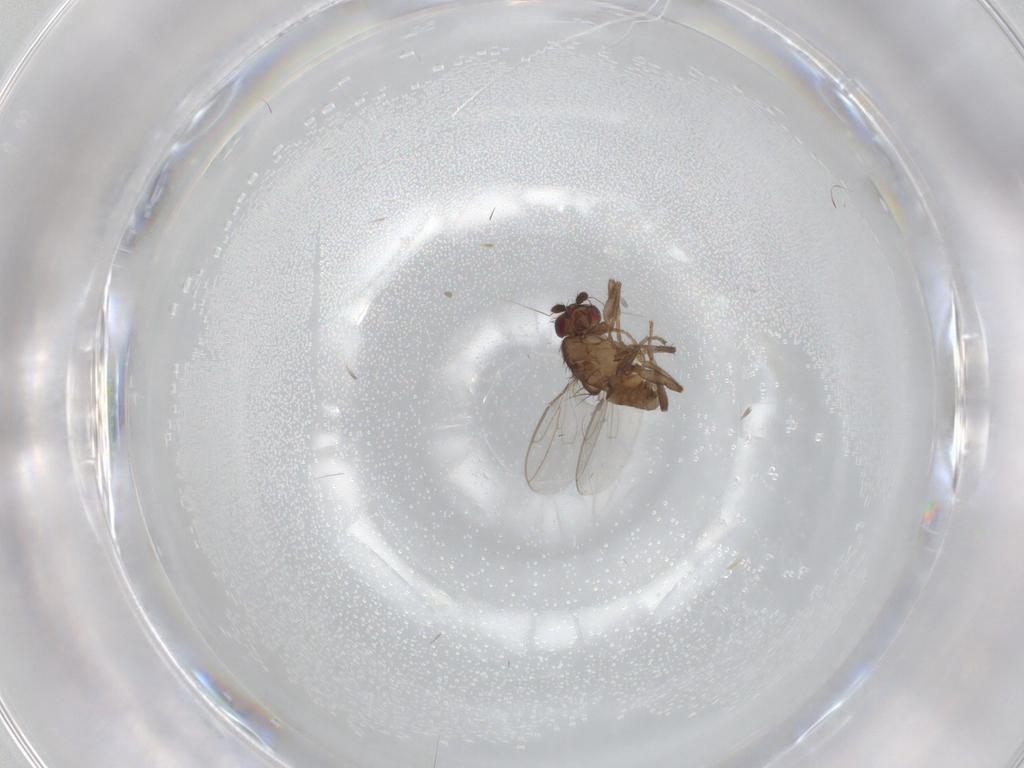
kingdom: Animalia
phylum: Arthropoda
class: Insecta
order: Diptera
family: Sphaeroceridae
